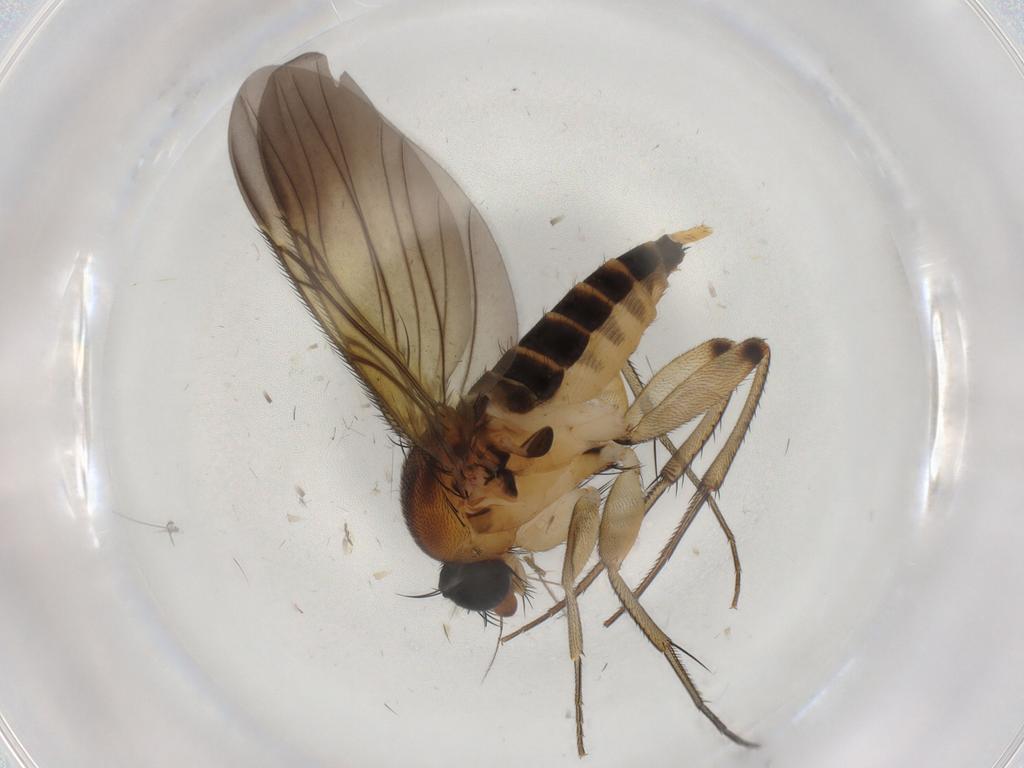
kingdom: Animalia
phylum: Arthropoda
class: Insecta
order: Diptera
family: Phoridae
